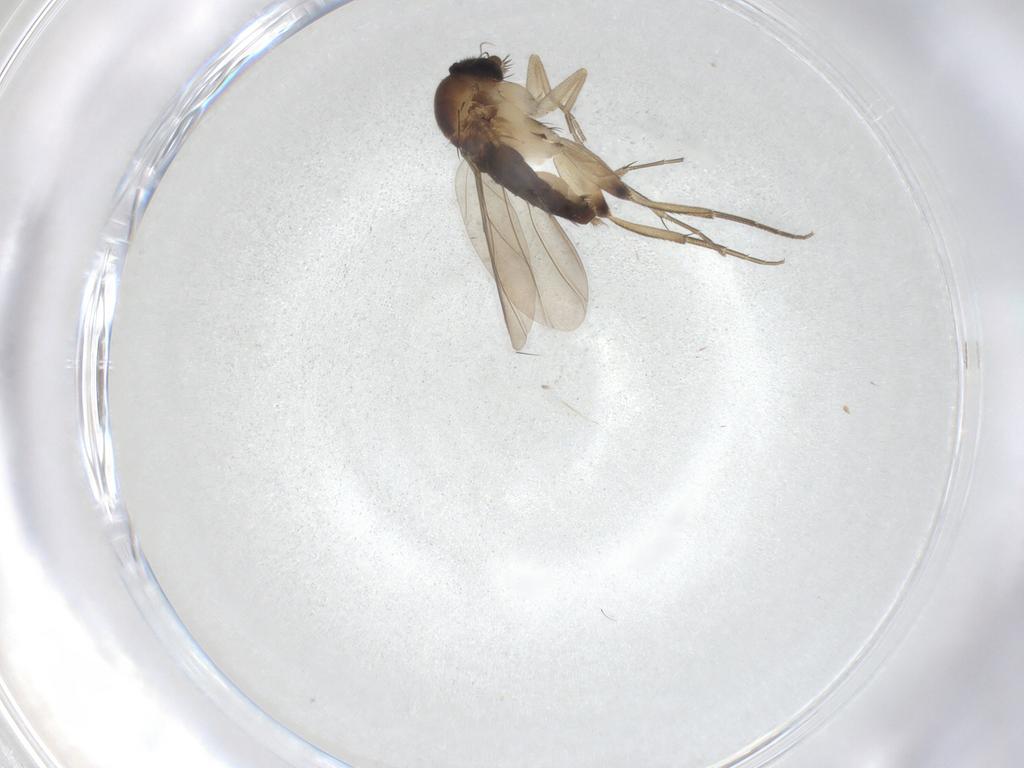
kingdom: Animalia
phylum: Arthropoda
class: Insecta
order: Diptera
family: Phoridae
